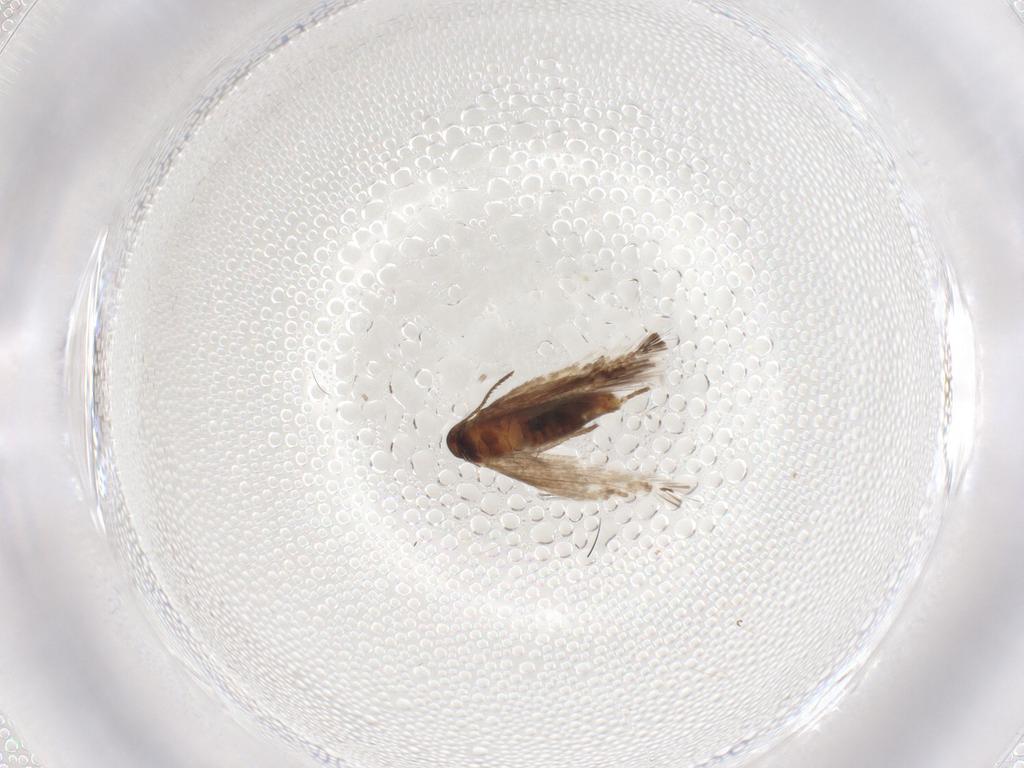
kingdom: Animalia
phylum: Arthropoda
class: Insecta
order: Lepidoptera
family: Heliozelidae
